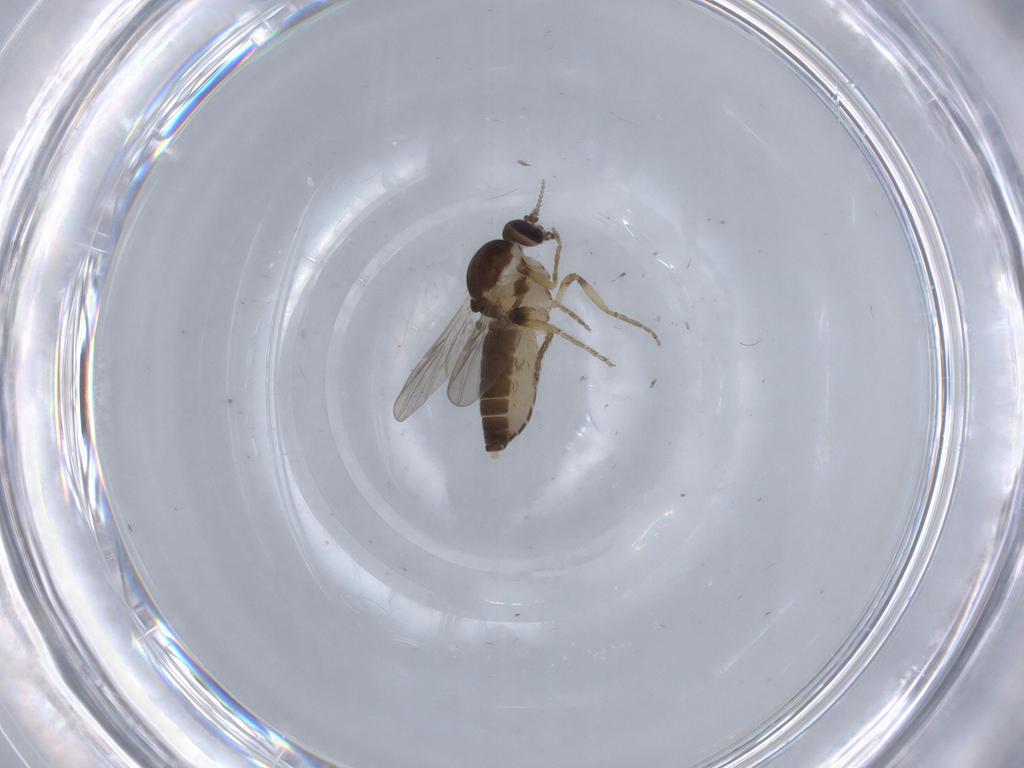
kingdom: Animalia
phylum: Arthropoda
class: Insecta
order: Diptera
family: Ceratopogonidae
